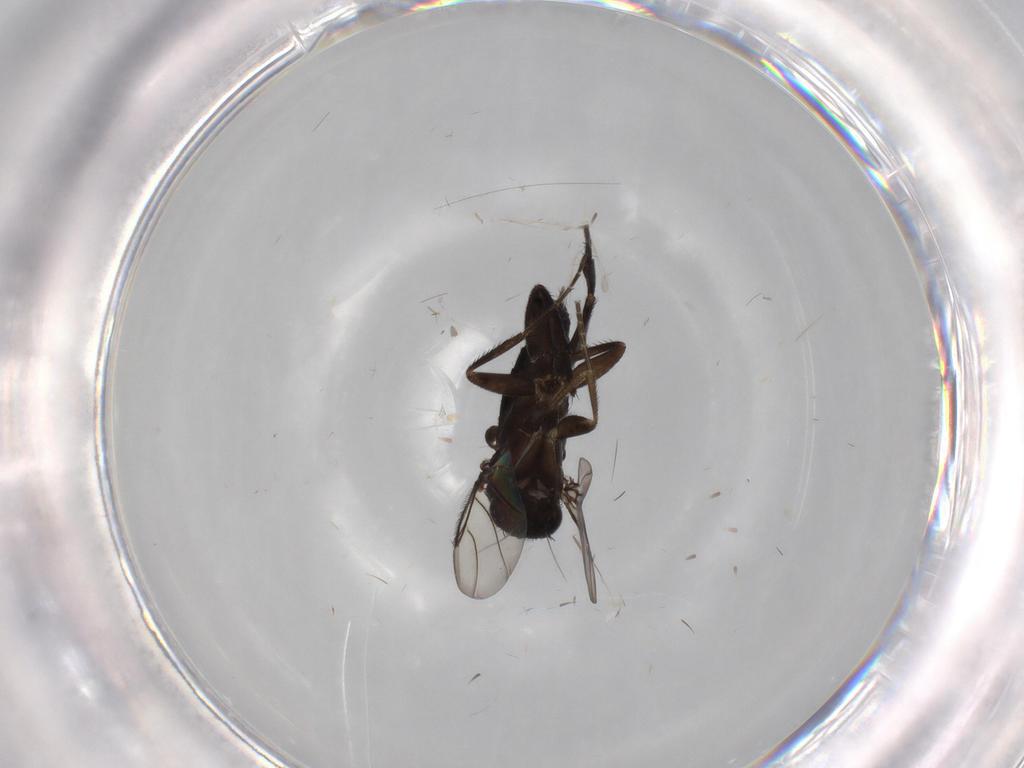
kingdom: Animalia
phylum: Arthropoda
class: Insecta
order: Diptera
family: Phoridae
